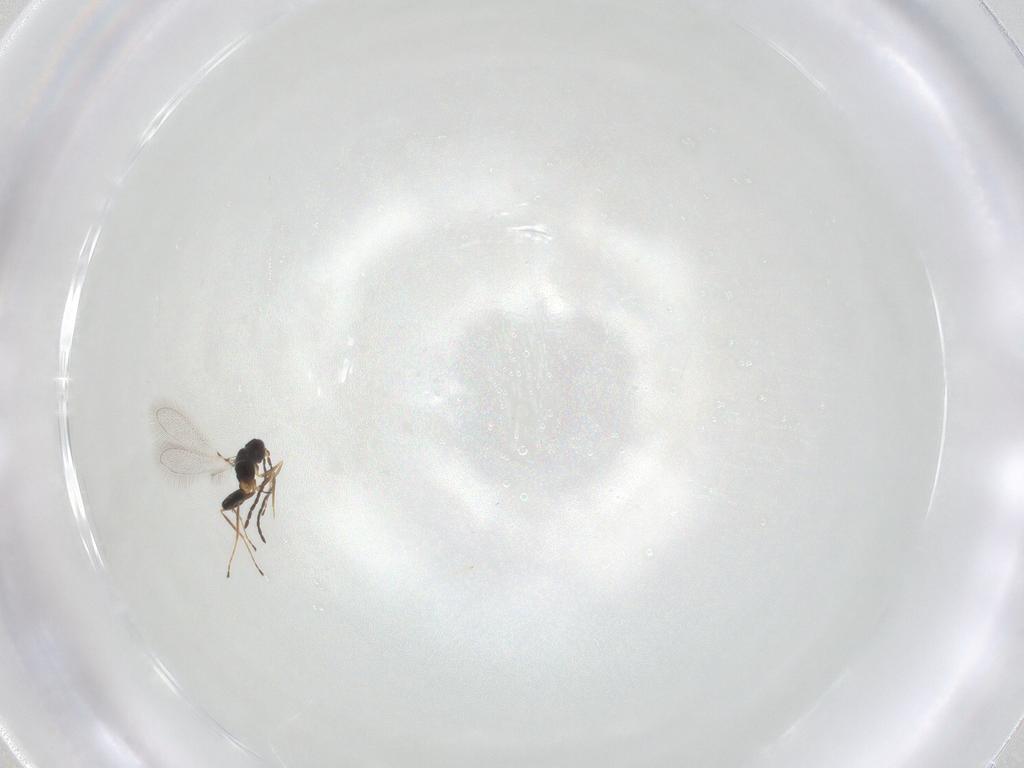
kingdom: Animalia
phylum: Arthropoda
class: Insecta
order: Hymenoptera
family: Mymaridae
